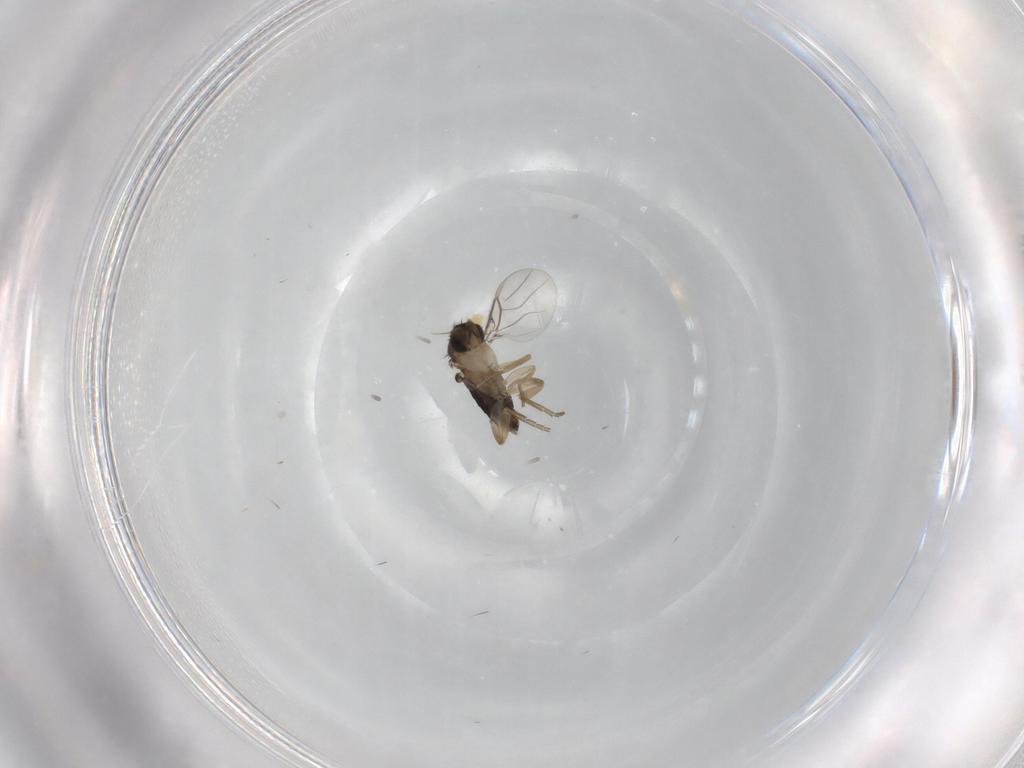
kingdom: Animalia
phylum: Arthropoda
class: Insecta
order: Diptera
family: Phoridae
